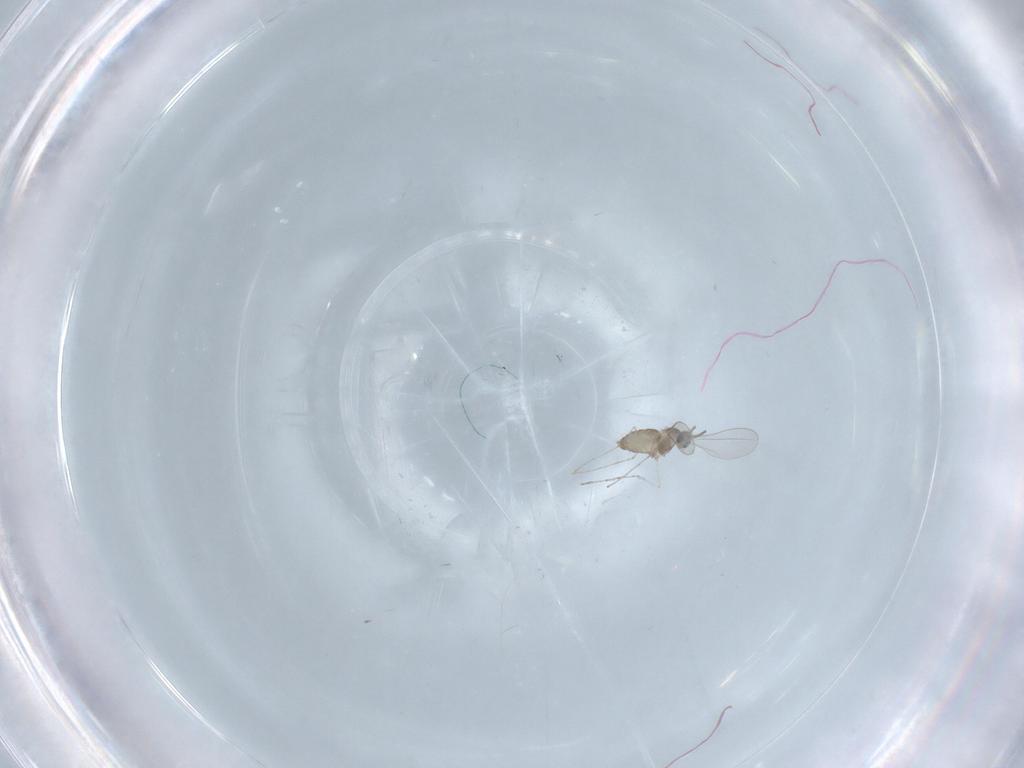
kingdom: Animalia
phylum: Arthropoda
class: Insecta
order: Diptera
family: Cecidomyiidae
